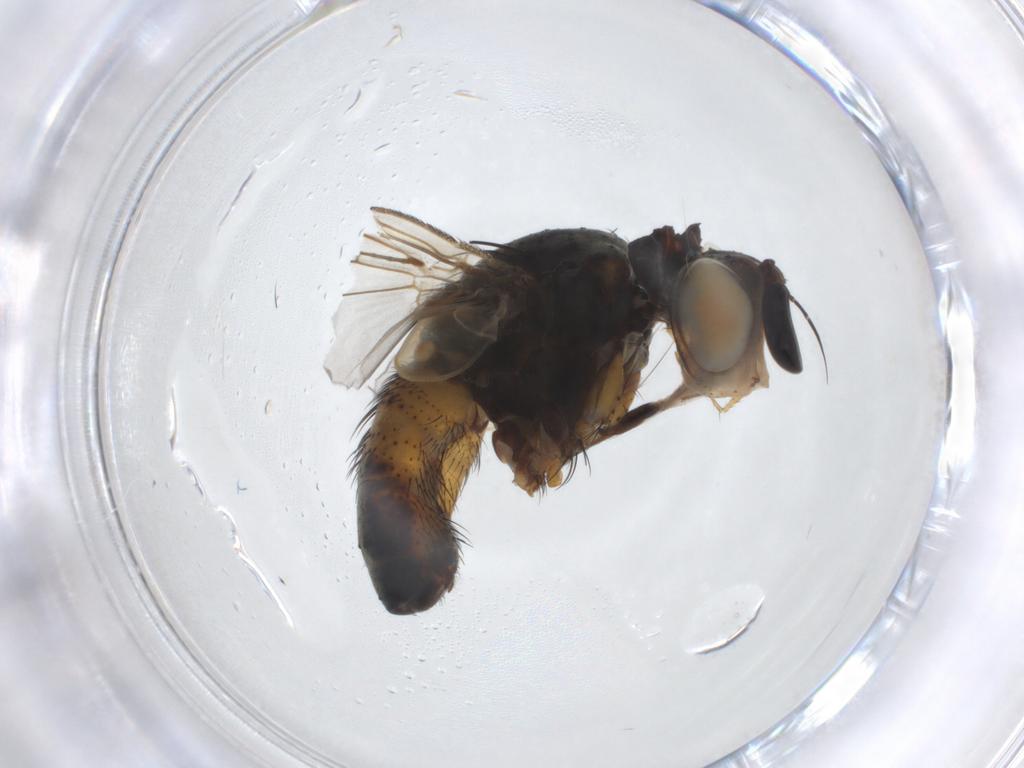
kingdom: Animalia
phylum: Arthropoda
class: Insecta
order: Diptera
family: Tachinidae
